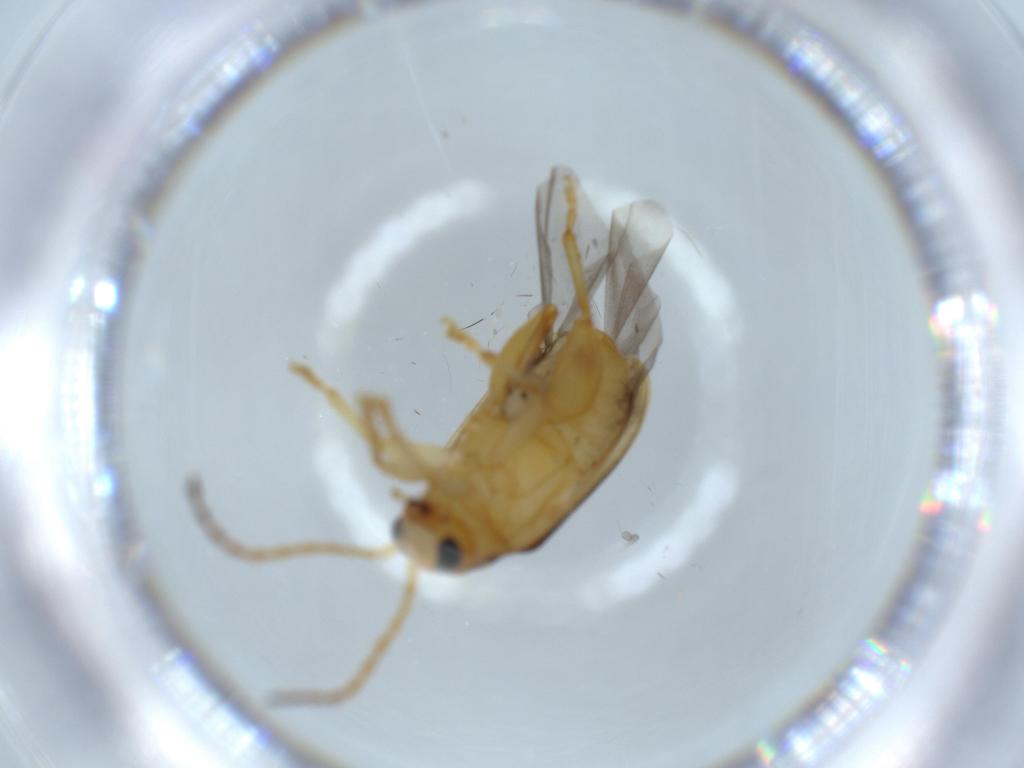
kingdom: Animalia
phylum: Arthropoda
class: Insecta
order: Coleoptera
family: Chrysomelidae
